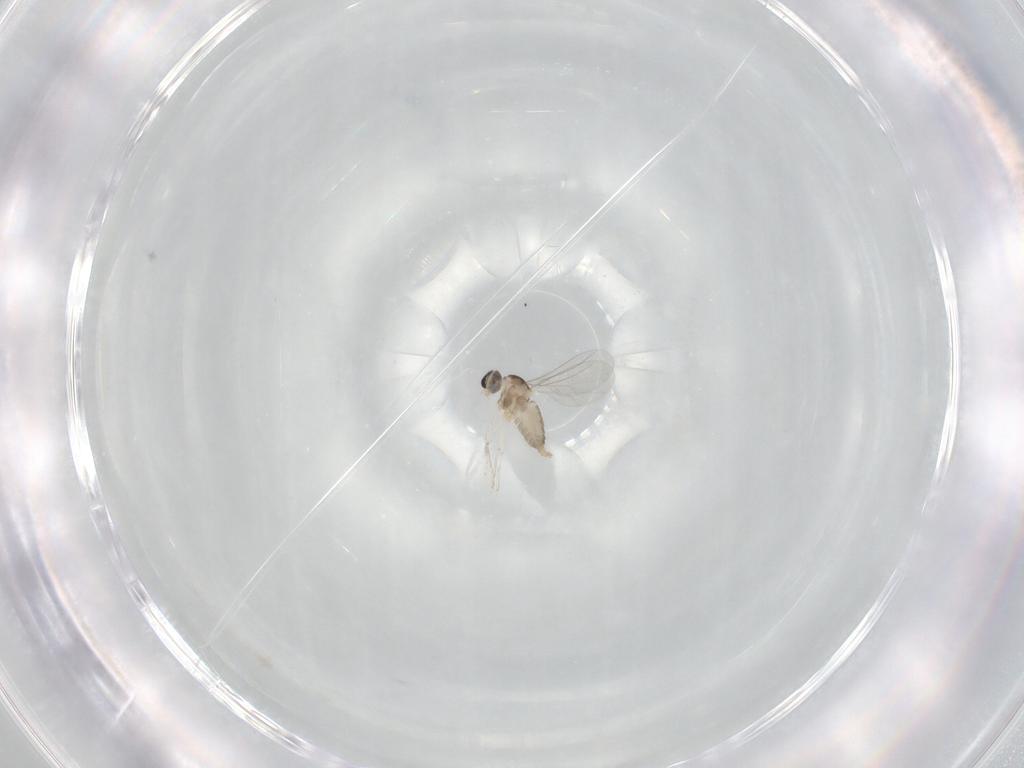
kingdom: Animalia
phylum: Arthropoda
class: Insecta
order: Diptera
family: Cecidomyiidae
